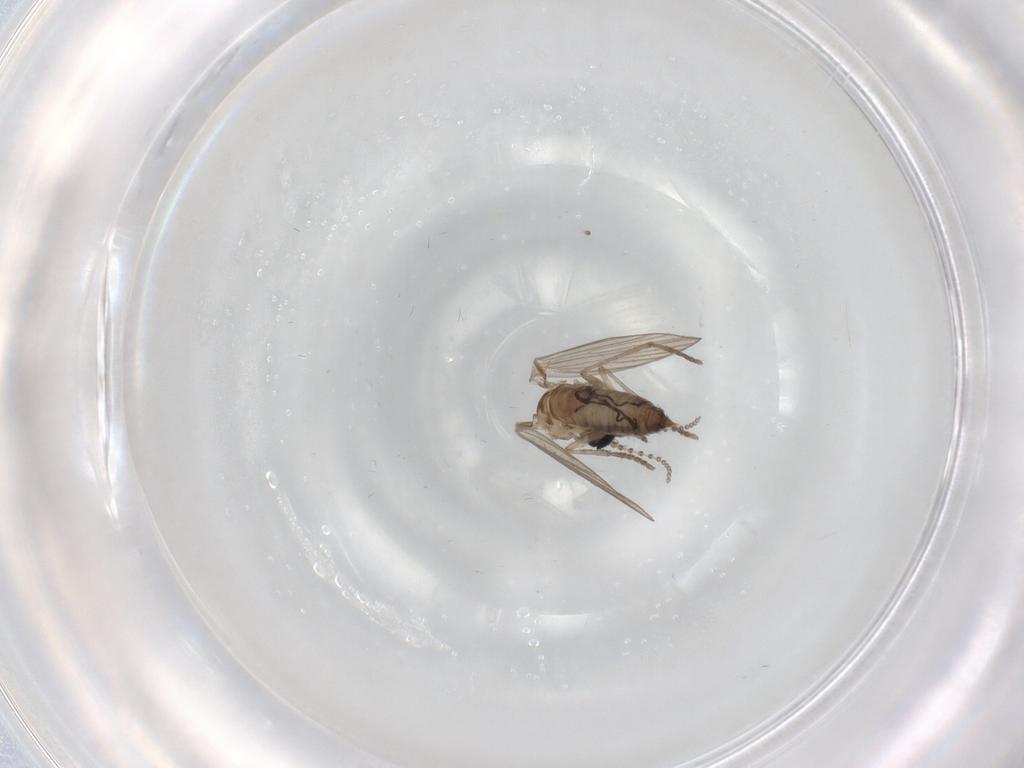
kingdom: Animalia
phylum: Arthropoda
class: Insecta
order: Diptera
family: Psychodidae
